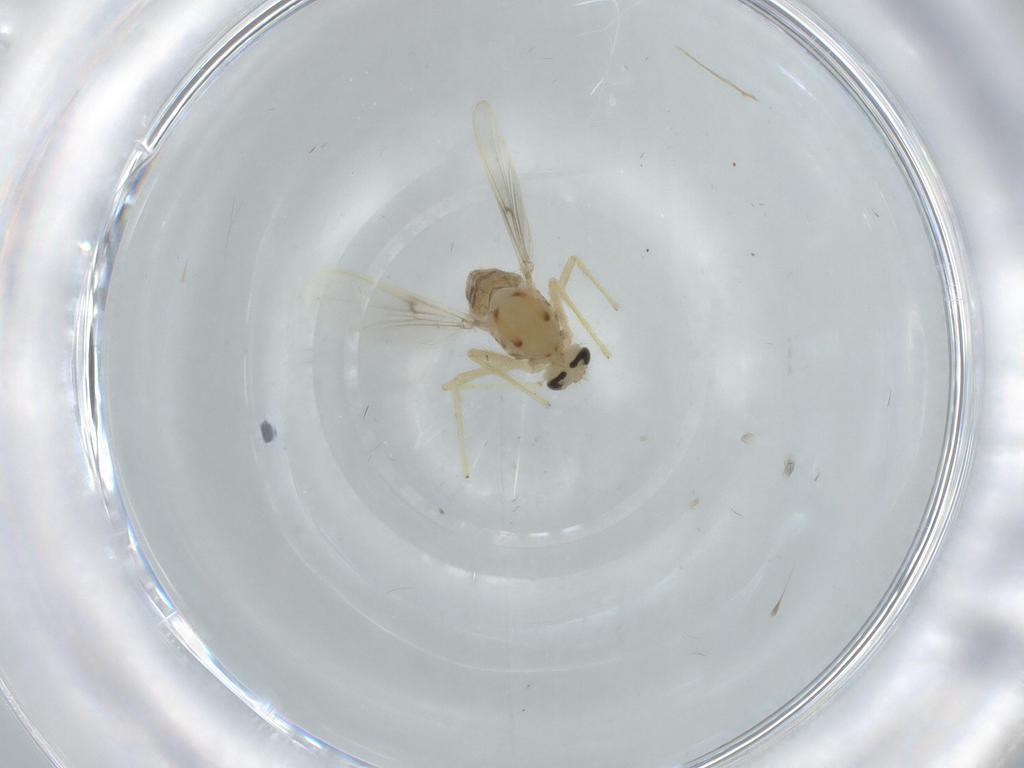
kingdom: Animalia
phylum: Arthropoda
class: Insecta
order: Diptera
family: Chironomidae
